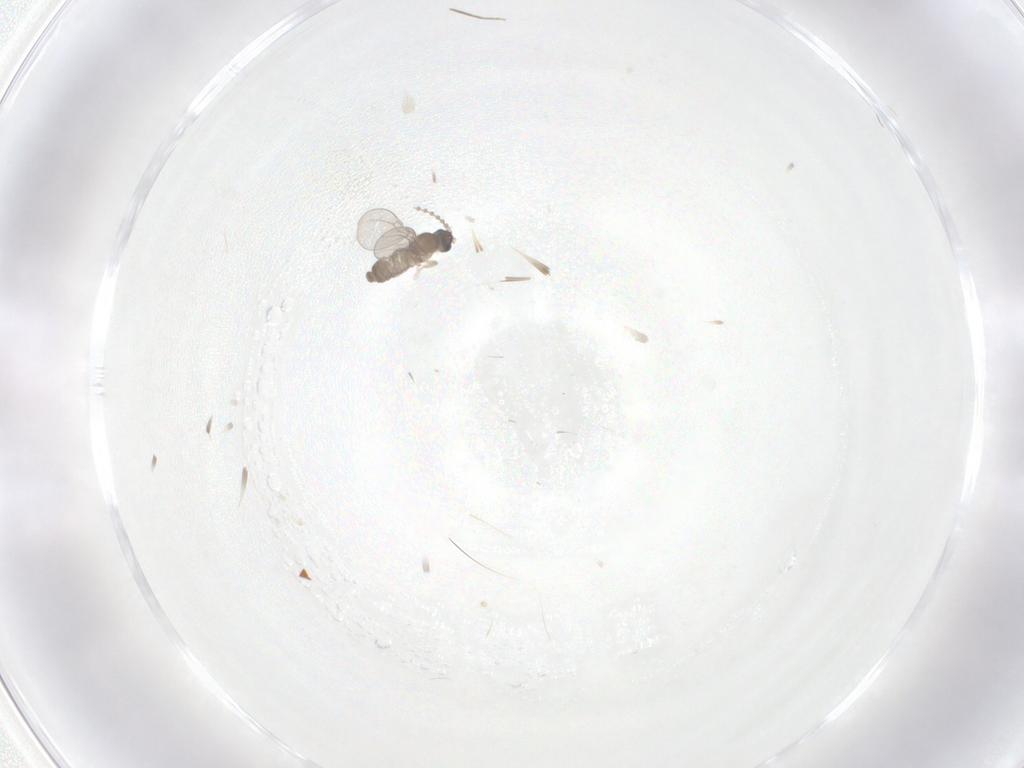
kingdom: Animalia
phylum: Arthropoda
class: Insecta
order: Diptera
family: Cecidomyiidae
